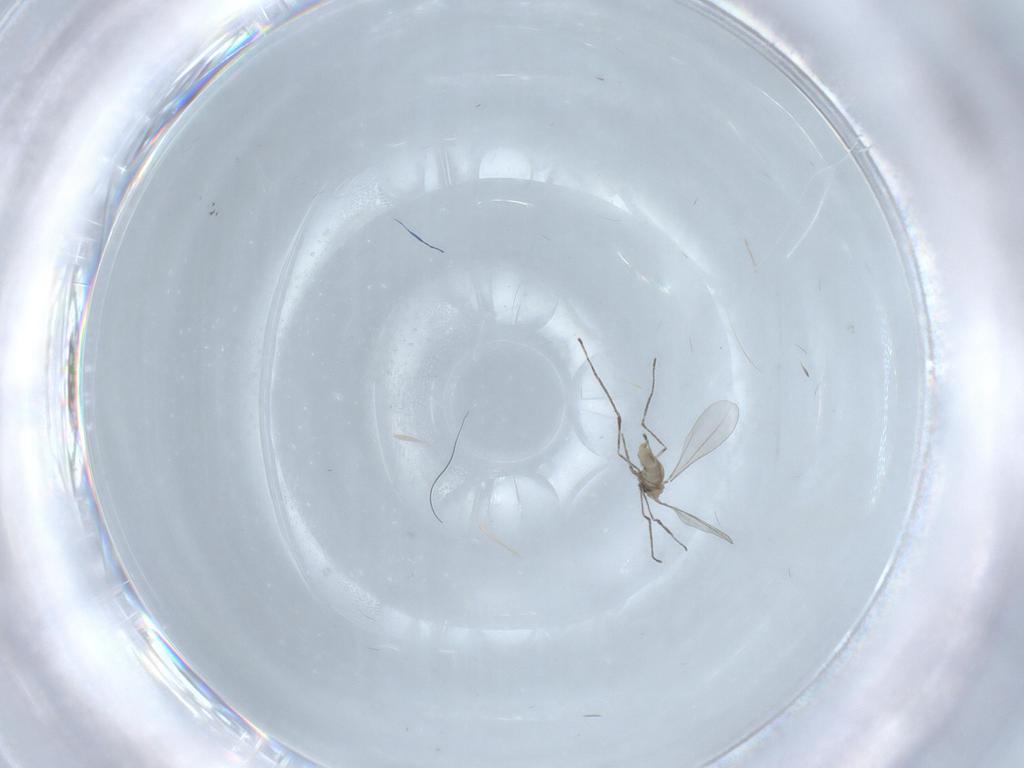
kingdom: Animalia
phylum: Arthropoda
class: Insecta
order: Diptera
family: Cecidomyiidae
